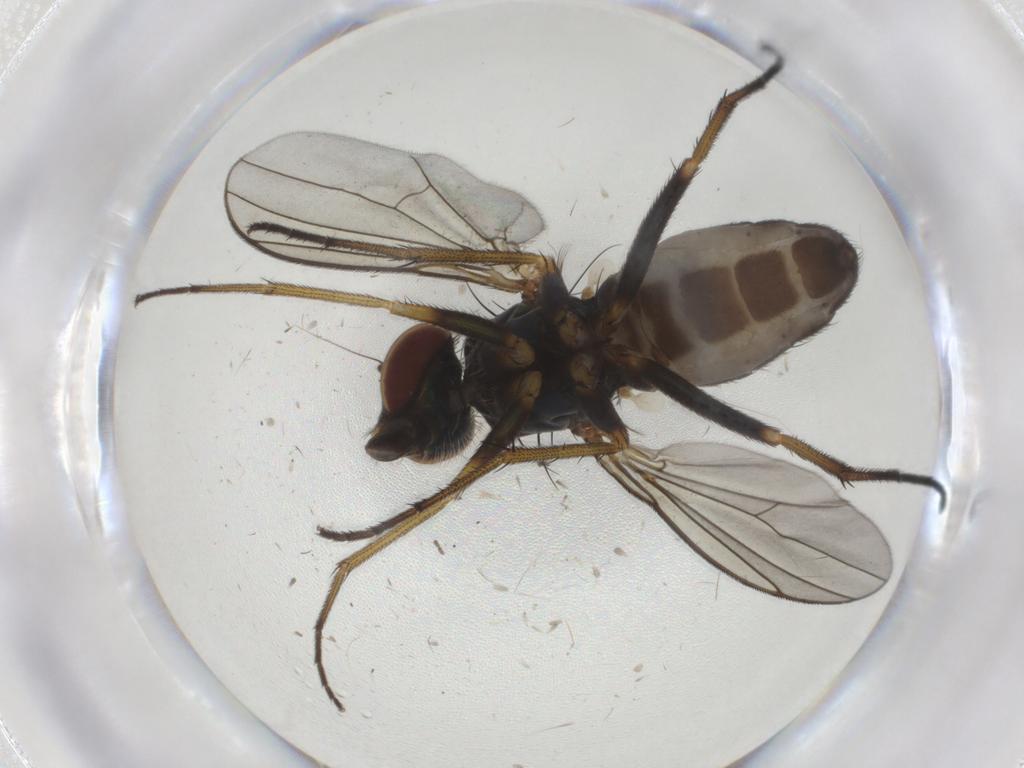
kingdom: Animalia
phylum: Arthropoda
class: Insecta
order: Diptera
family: Dolichopodidae
